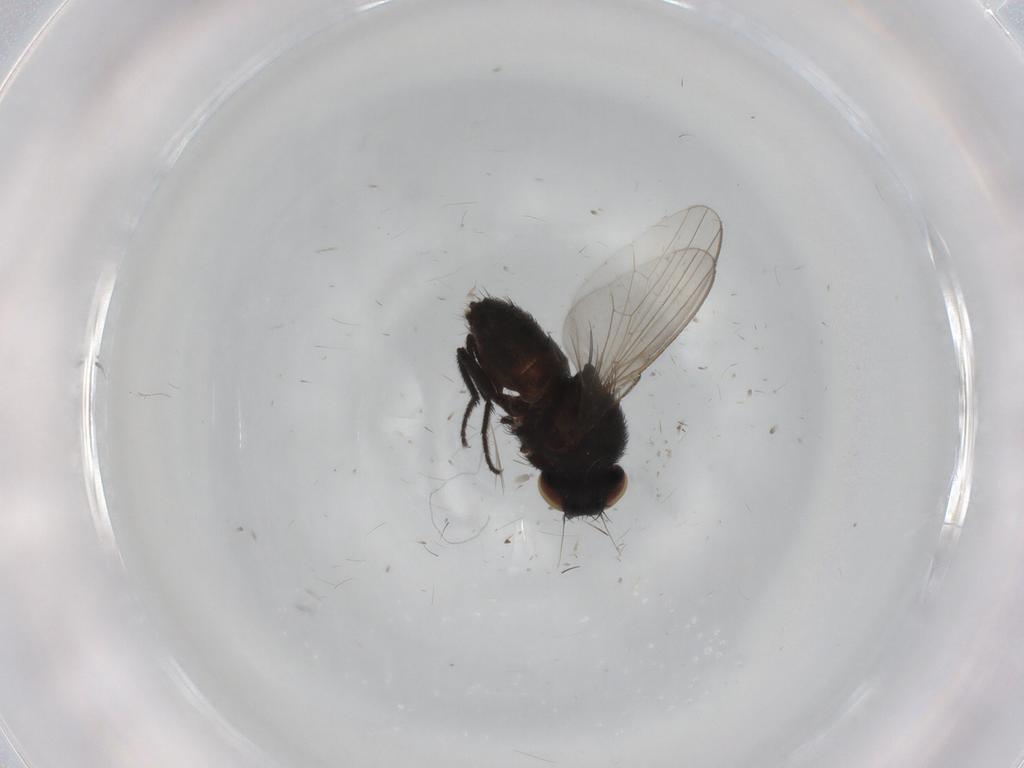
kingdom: Animalia
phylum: Arthropoda
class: Insecta
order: Diptera
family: Milichiidae
